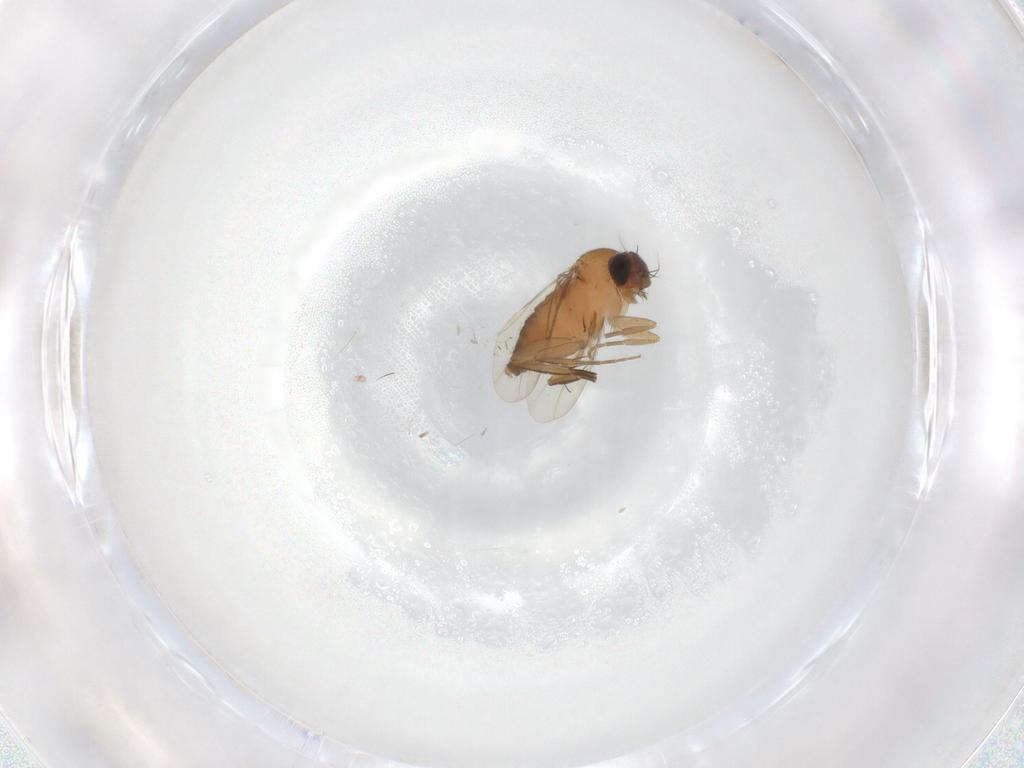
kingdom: Animalia
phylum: Arthropoda
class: Insecta
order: Diptera
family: Phoridae
